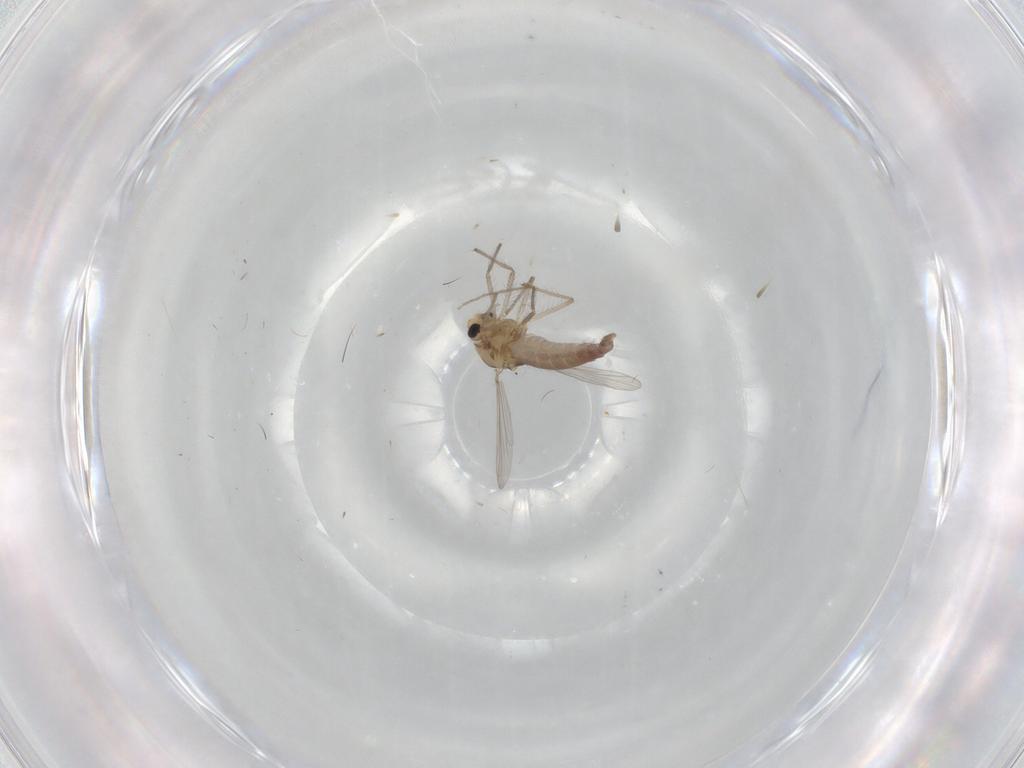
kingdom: Animalia
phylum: Arthropoda
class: Insecta
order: Diptera
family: Chironomidae
